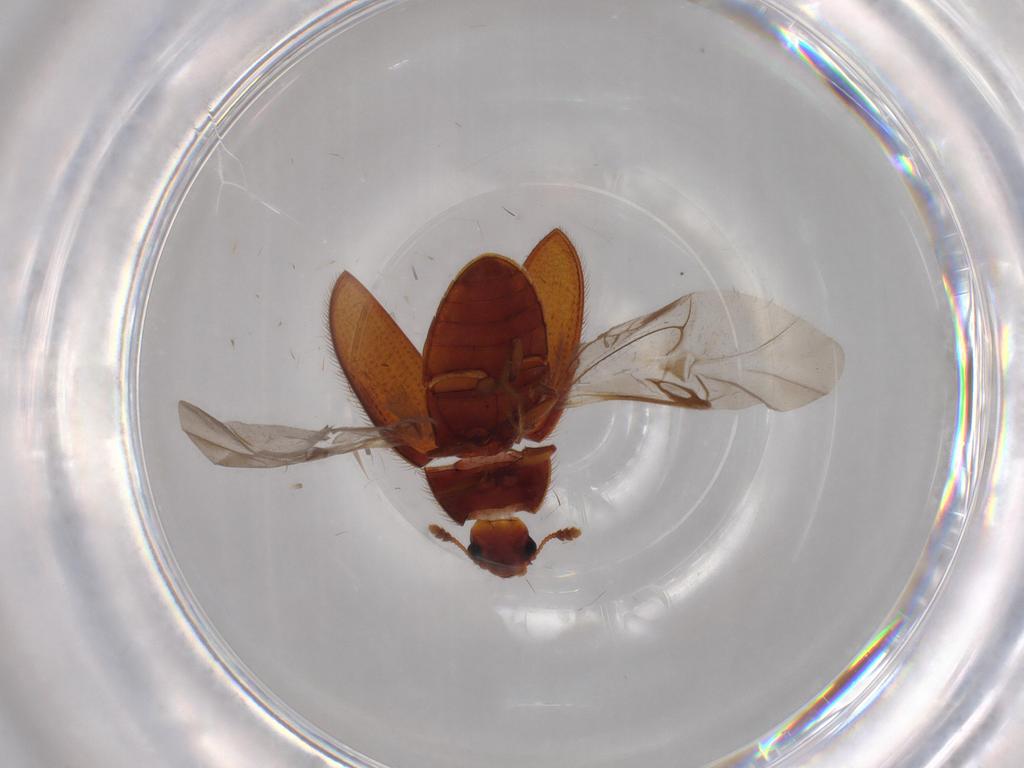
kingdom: Animalia
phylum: Arthropoda
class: Insecta
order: Coleoptera
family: Biphyllidae
